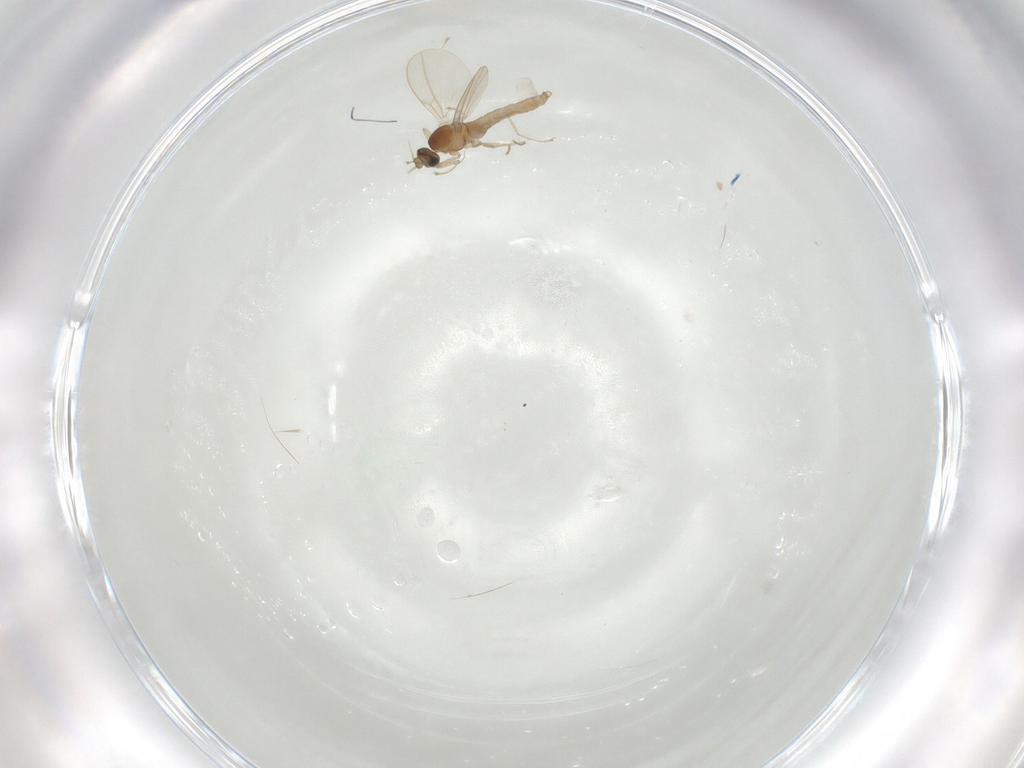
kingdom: Animalia
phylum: Arthropoda
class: Insecta
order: Diptera
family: Cecidomyiidae
